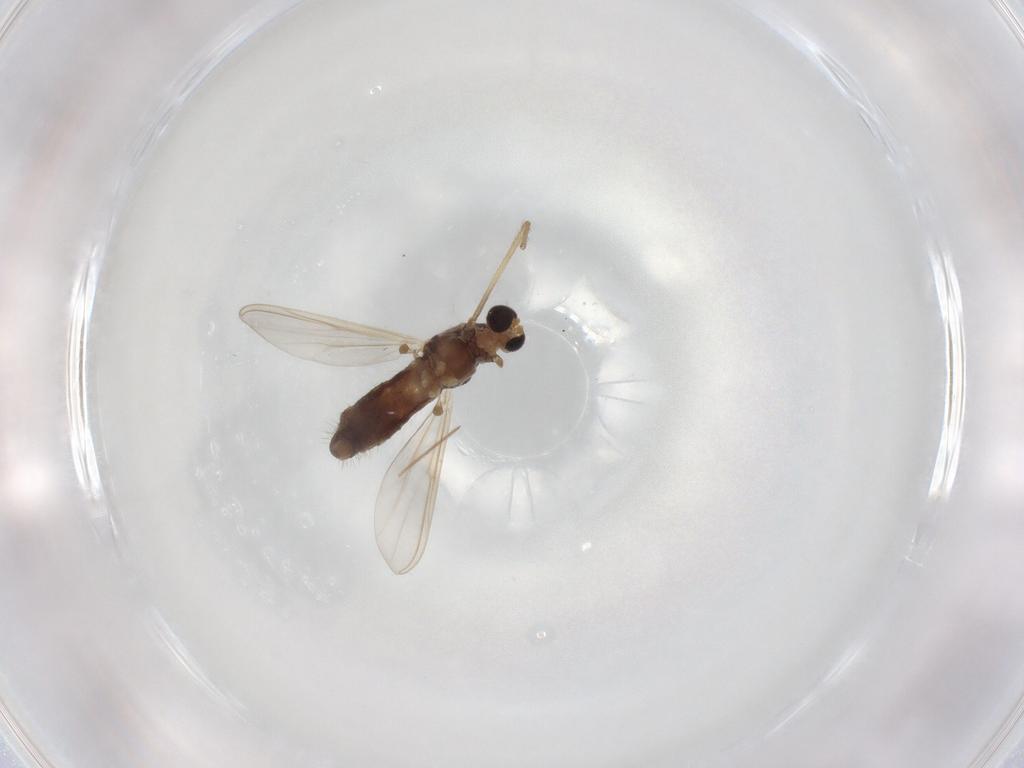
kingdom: Animalia
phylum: Arthropoda
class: Insecta
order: Diptera
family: Chironomidae
